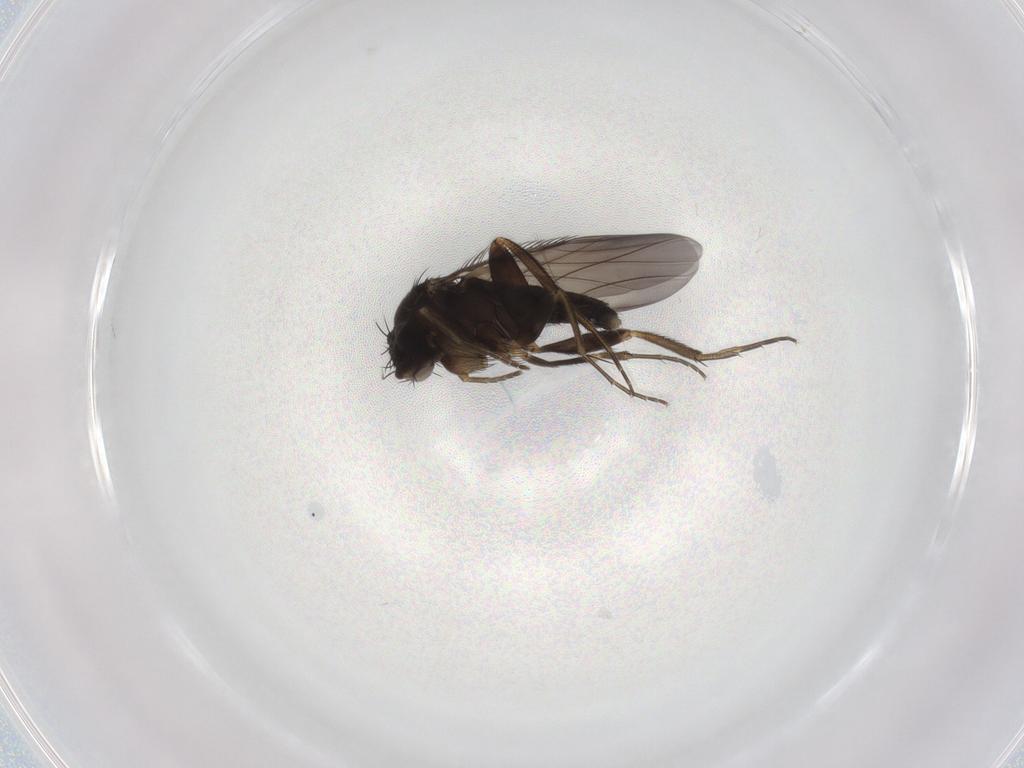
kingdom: Animalia
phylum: Arthropoda
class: Insecta
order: Diptera
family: Phoridae
